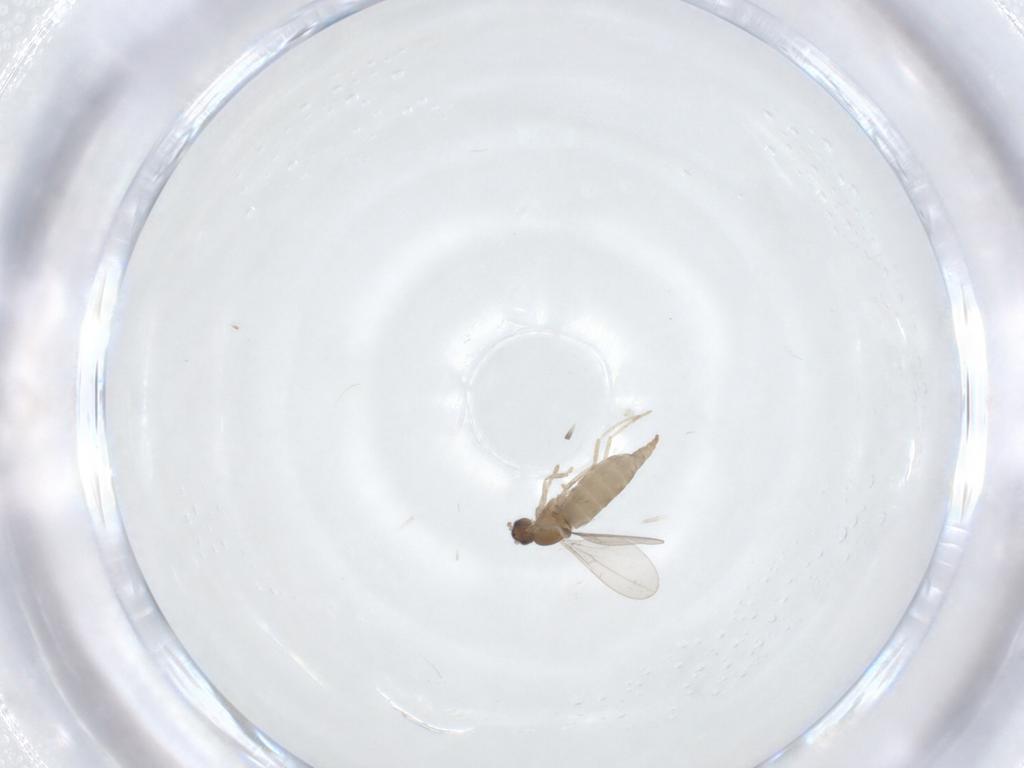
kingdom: Animalia
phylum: Arthropoda
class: Insecta
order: Diptera
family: Cecidomyiidae
